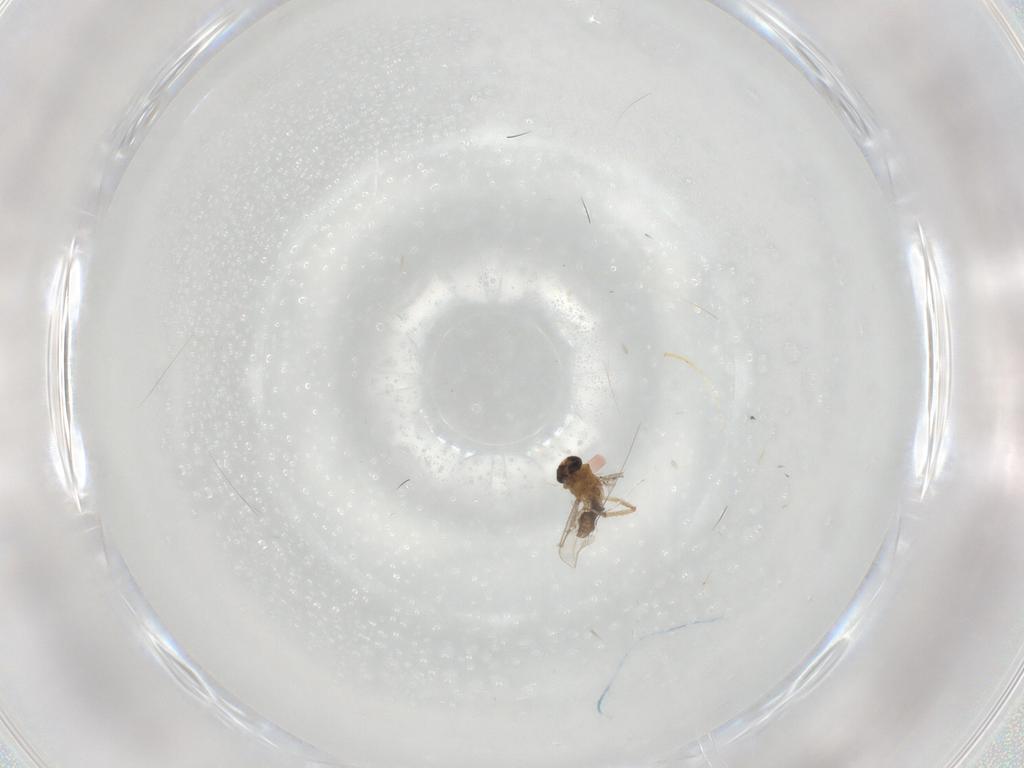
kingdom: Animalia
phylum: Arthropoda
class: Insecta
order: Diptera
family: Ceratopogonidae
